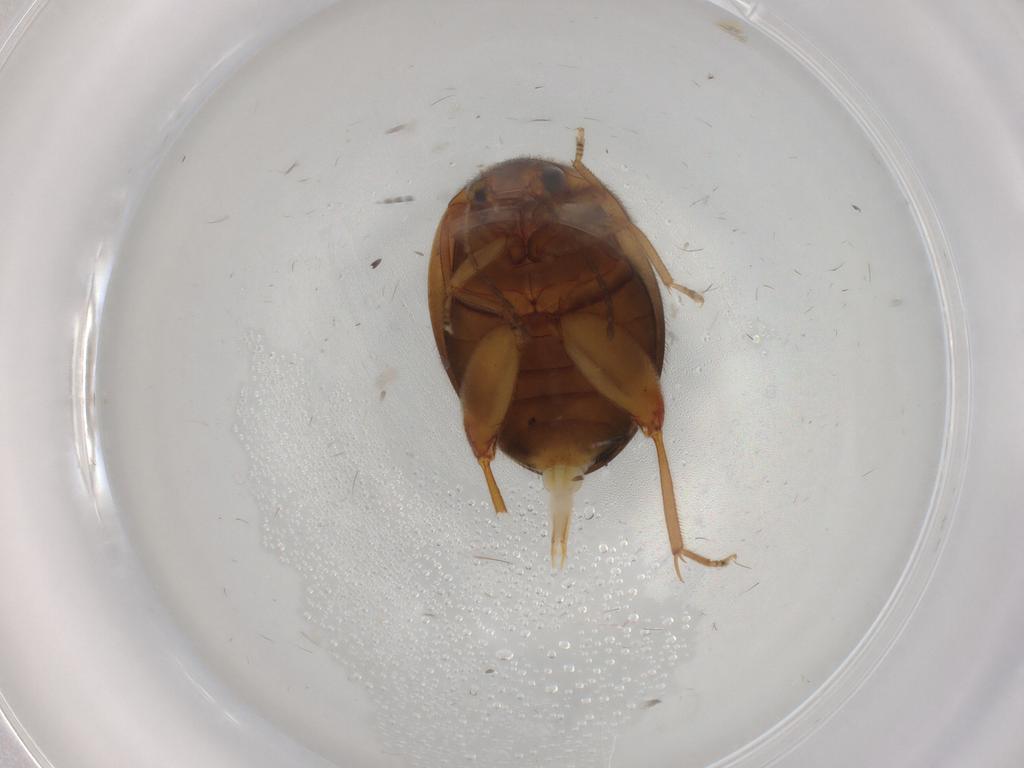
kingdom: Animalia
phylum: Arthropoda
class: Insecta
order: Coleoptera
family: Scirtidae
